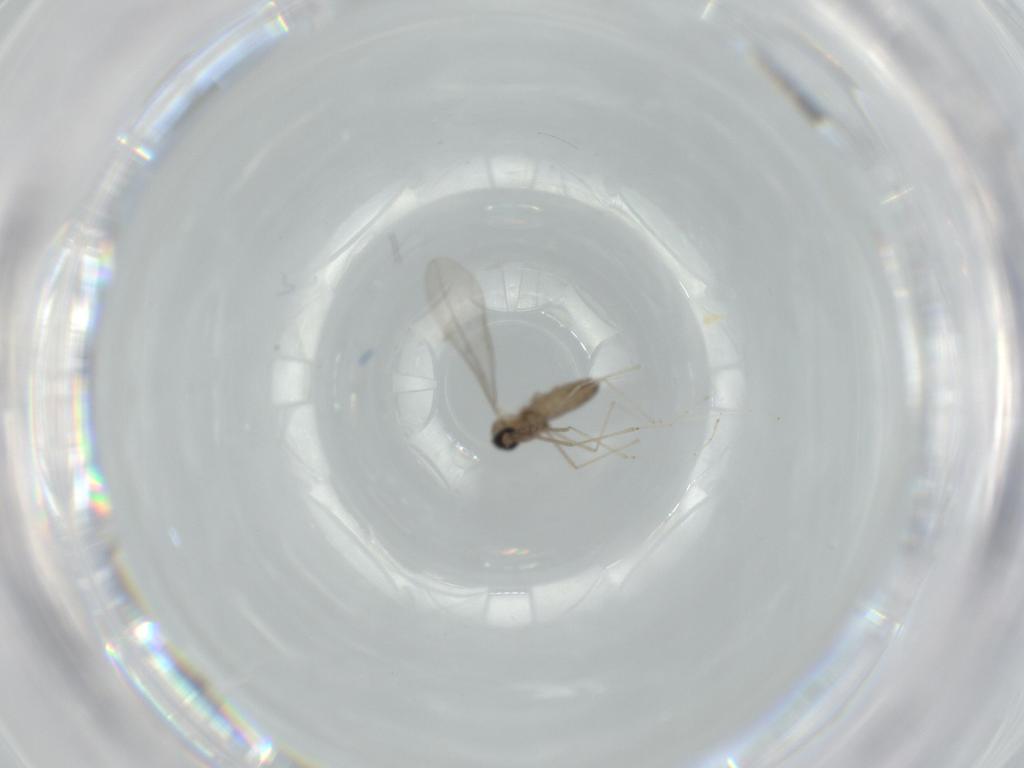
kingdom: Animalia
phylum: Arthropoda
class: Insecta
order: Diptera
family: Cecidomyiidae
